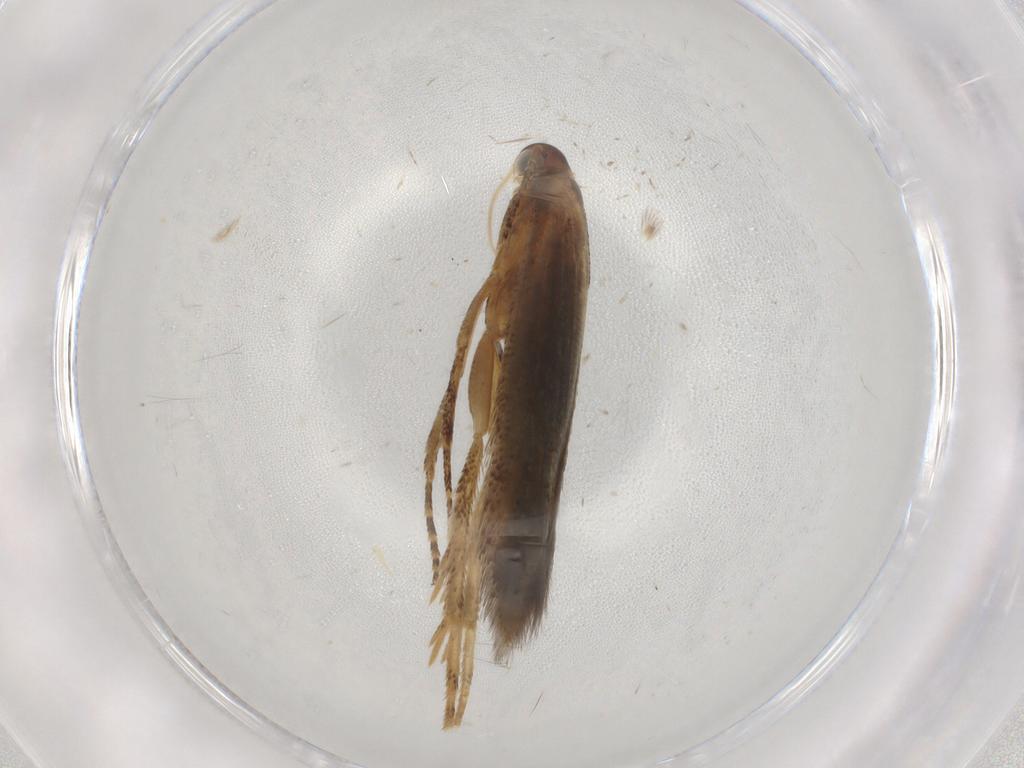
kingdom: Animalia
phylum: Arthropoda
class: Insecta
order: Lepidoptera
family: Gelechiidae
